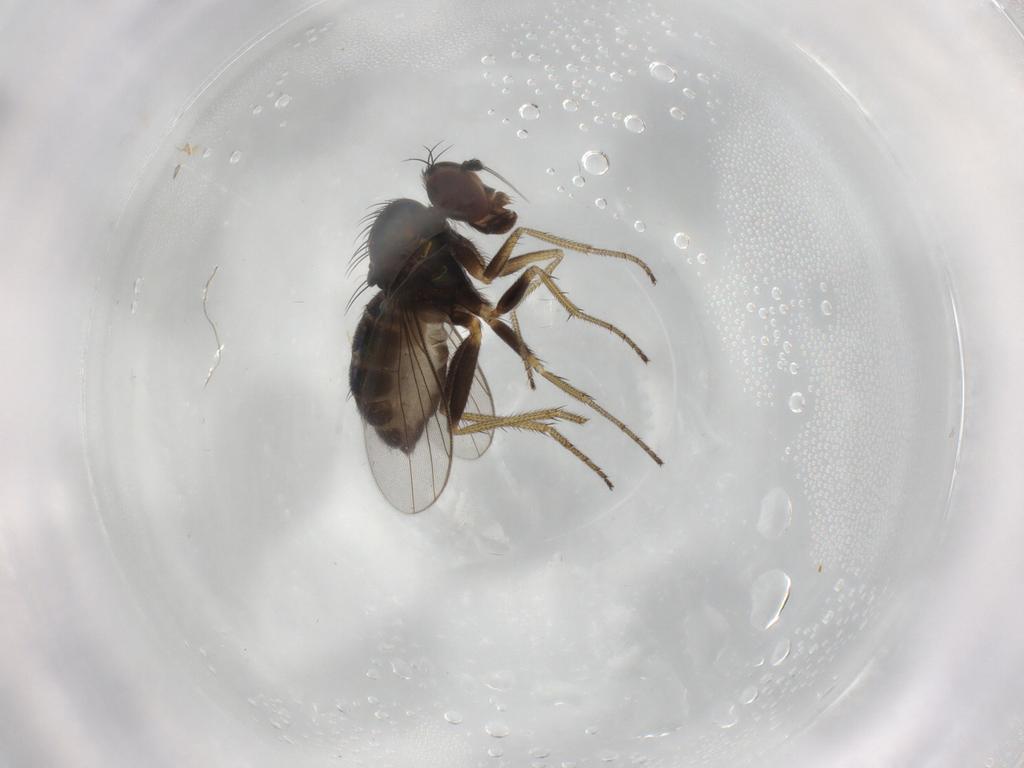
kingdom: Animalia
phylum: Arthropoda
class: Insecta
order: Diptera
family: Cecidomyiidae
